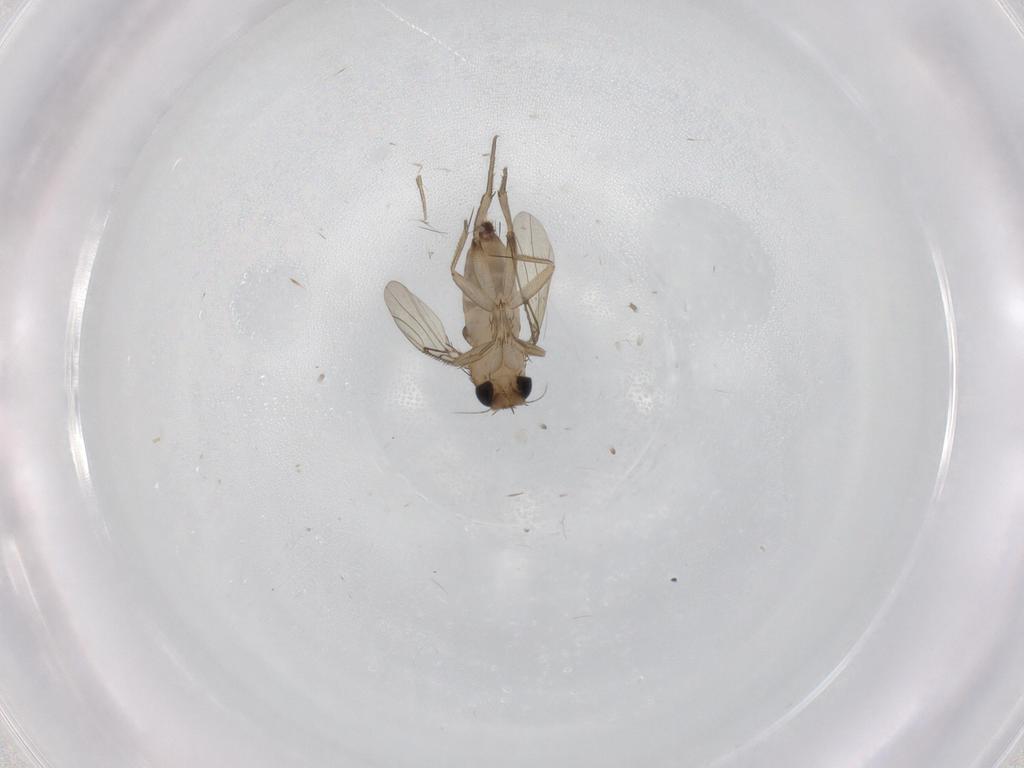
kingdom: Animalia
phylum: Arthropoda
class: Insecta
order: Diptera
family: Phoridae
